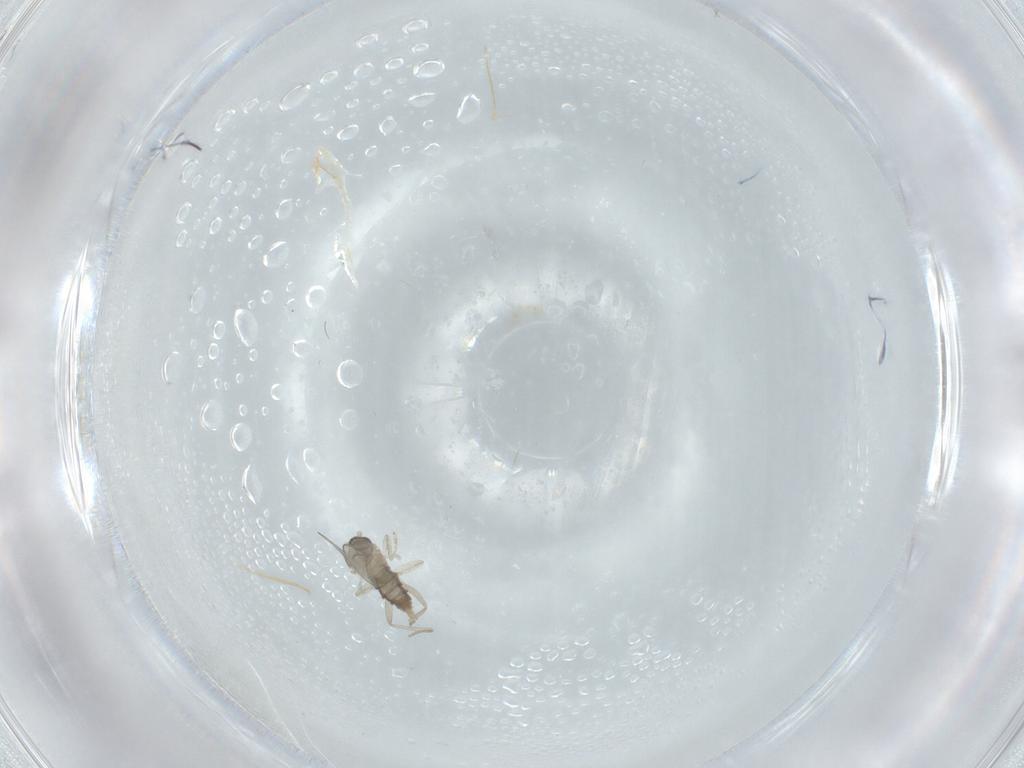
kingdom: Animalia
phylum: Arthropoda
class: Insecta
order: Diptera
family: Cecidomyiidae
